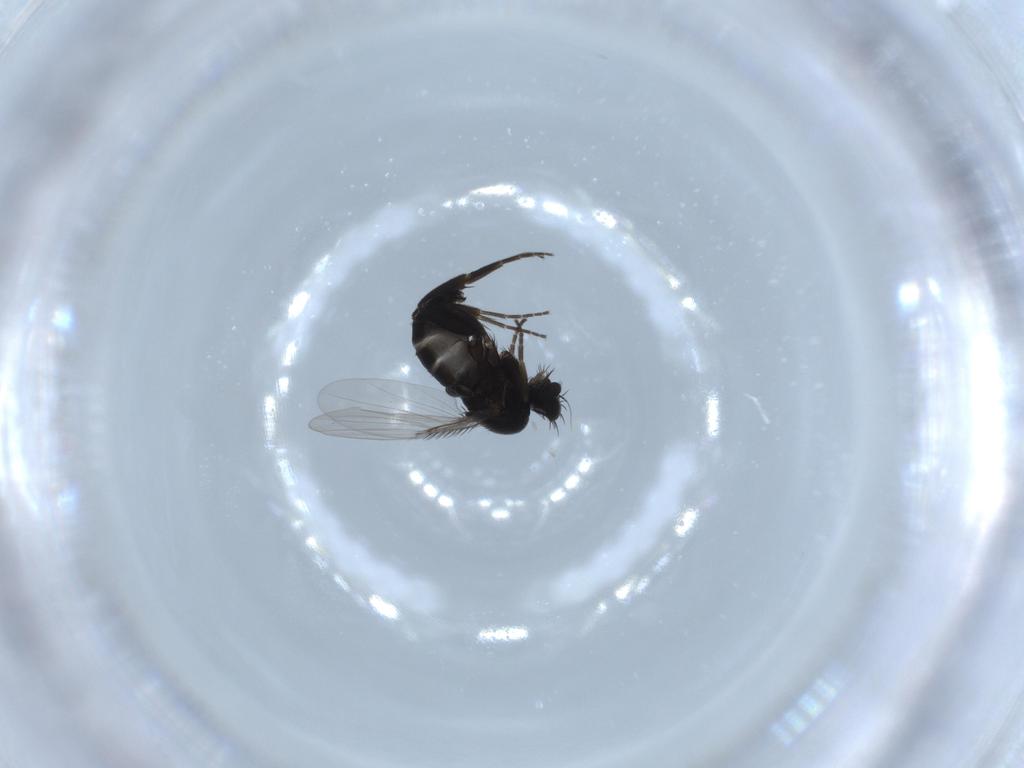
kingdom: Animalia
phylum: Arthropoda
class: Insecta
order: Diptera
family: Phoridae
